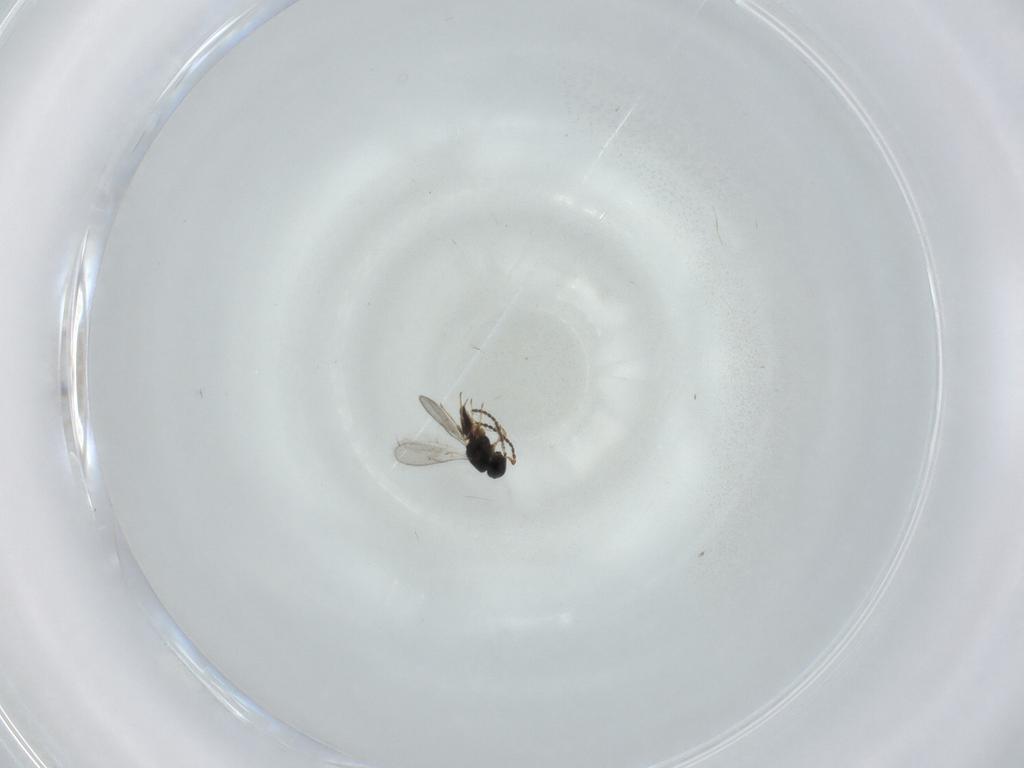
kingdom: Animalia
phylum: Arthropoda
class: Insecta
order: Hymenoptera
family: Scelionidae
